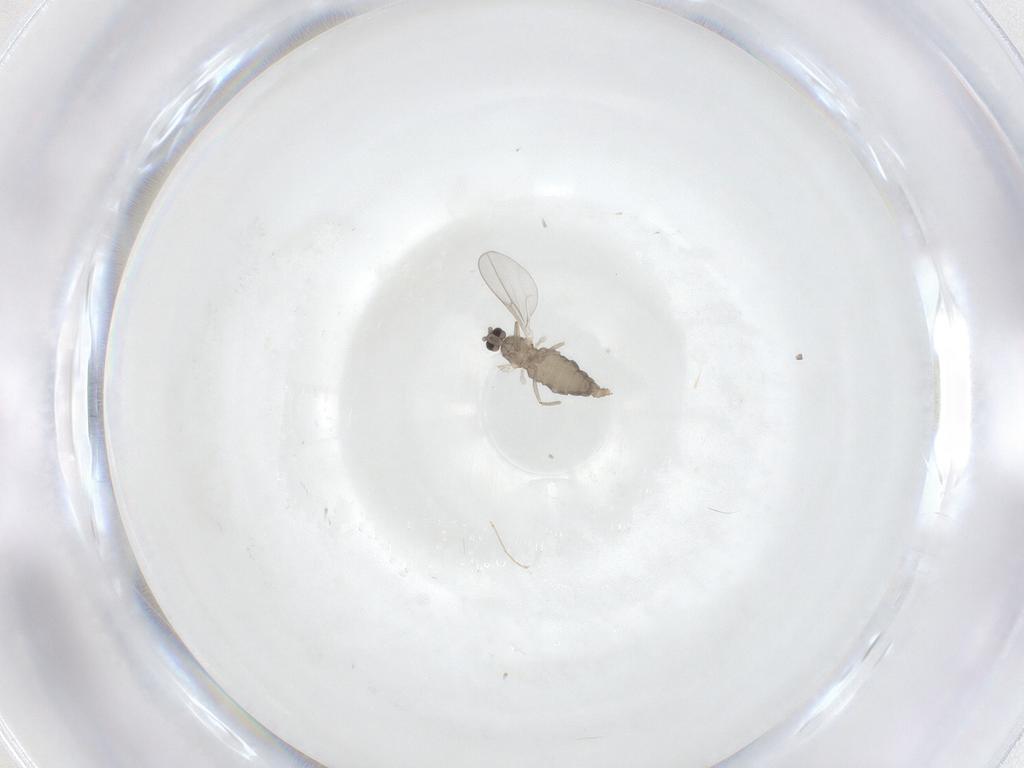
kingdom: Animalia
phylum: Arthropoda
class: Insecta
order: Diptera
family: Cecidomyiidae
